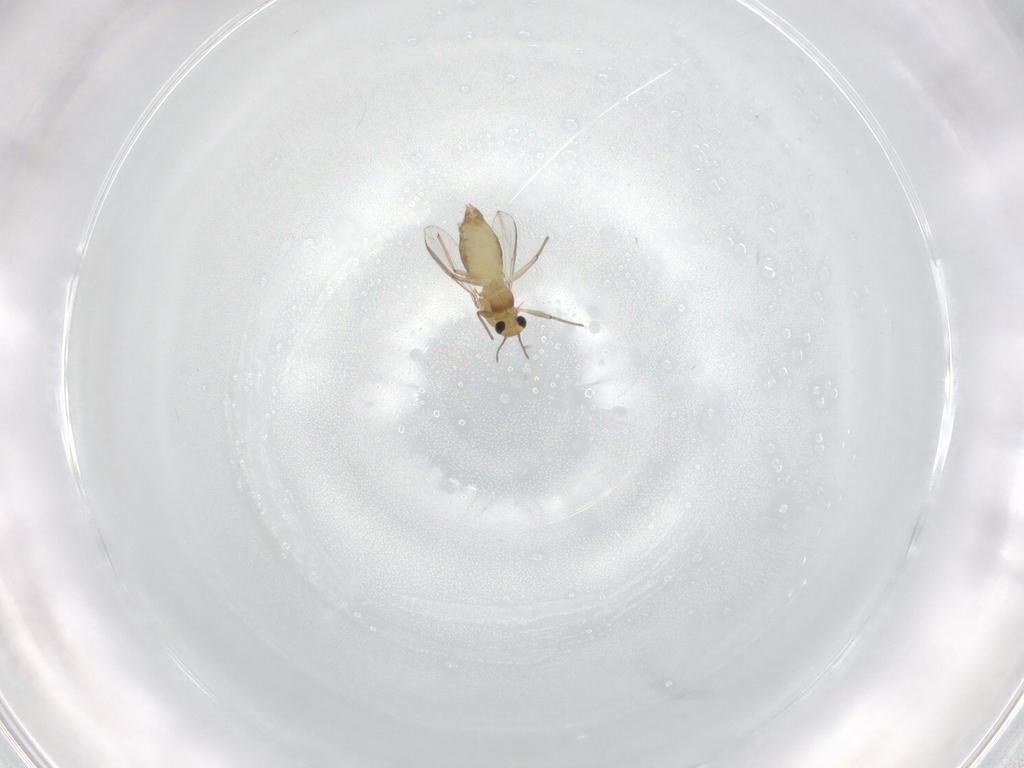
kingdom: Animalia
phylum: Arthropoda
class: Insecta
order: Diptera
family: Chironomidae
